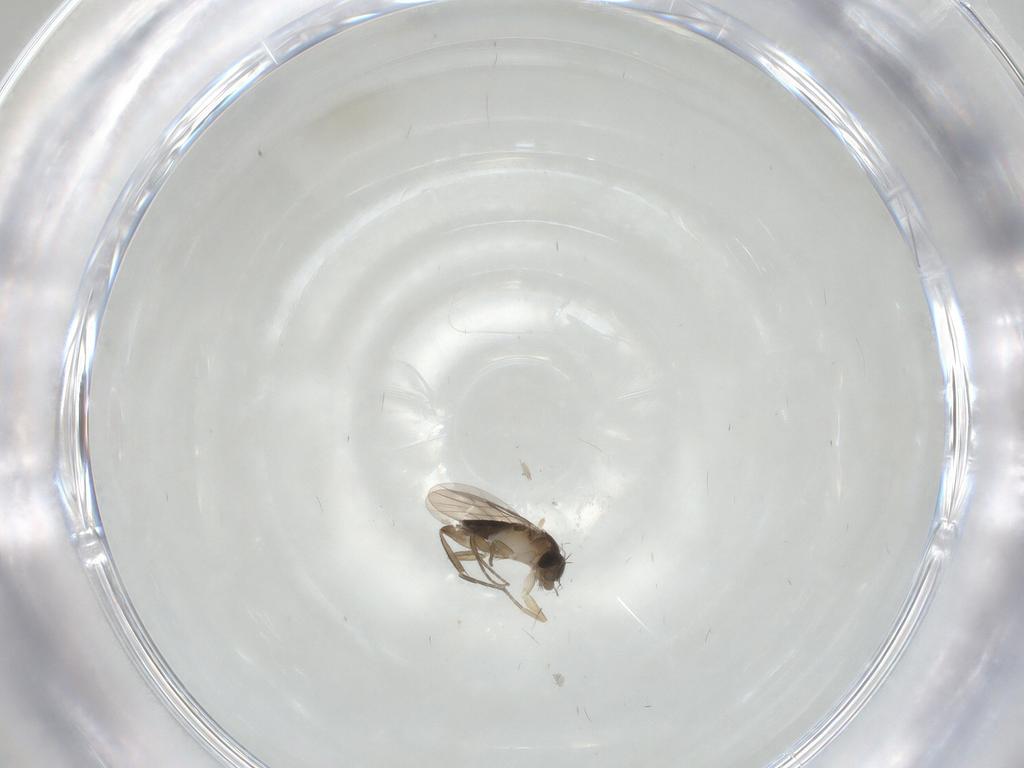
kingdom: Animalia
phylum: Arthropoda
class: Insecta
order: Diptera
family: Phoridae
